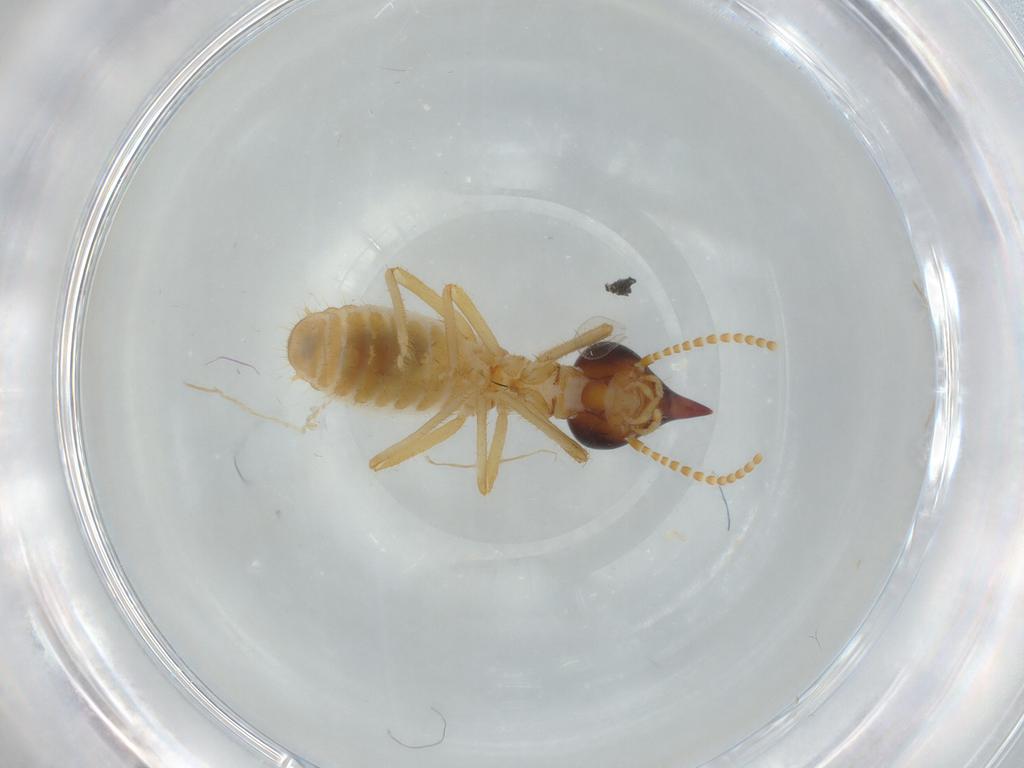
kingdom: Animalia
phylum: Arthropoda
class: Insecta
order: Blattodea
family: Termitidae
